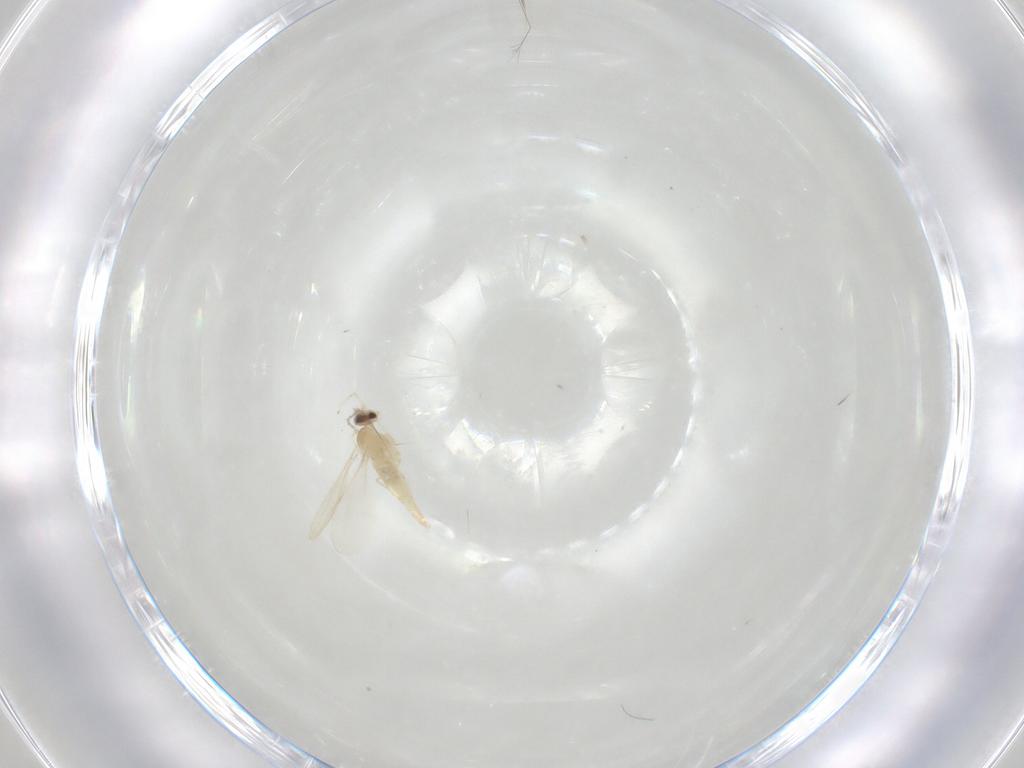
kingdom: Animalia
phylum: Arthropoda
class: Insecta
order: Diptera
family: Cecidomyiidae
